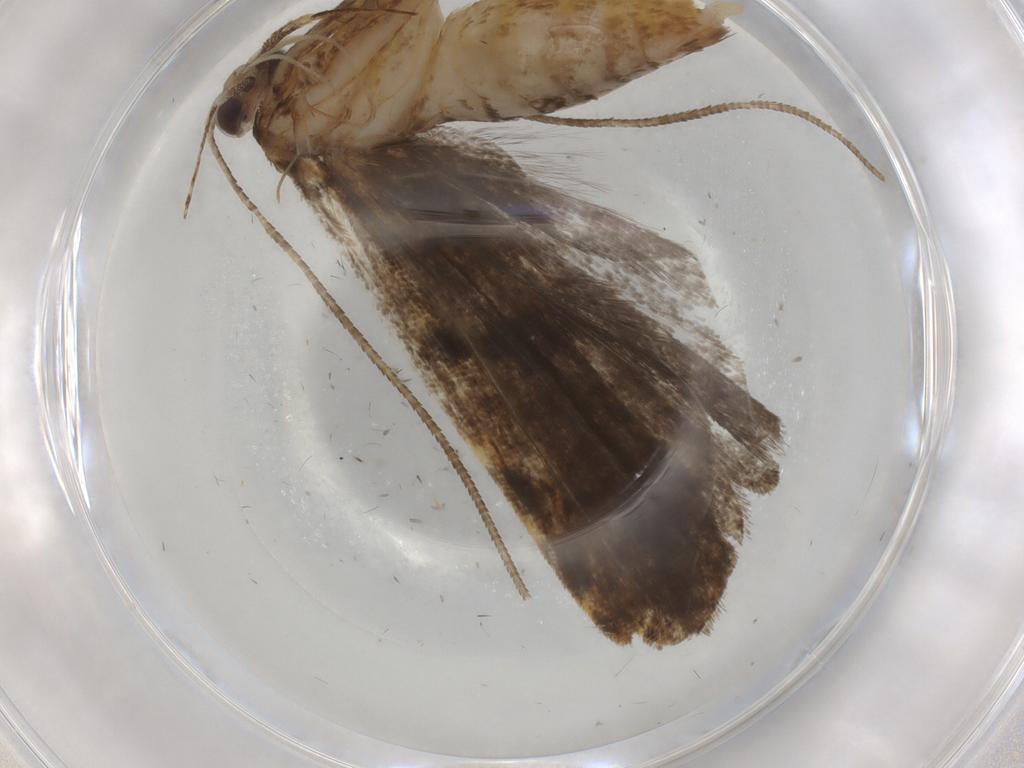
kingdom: Animalia
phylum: Arthropoda
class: Insecta
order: Lepidoptera
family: Autostichidae
